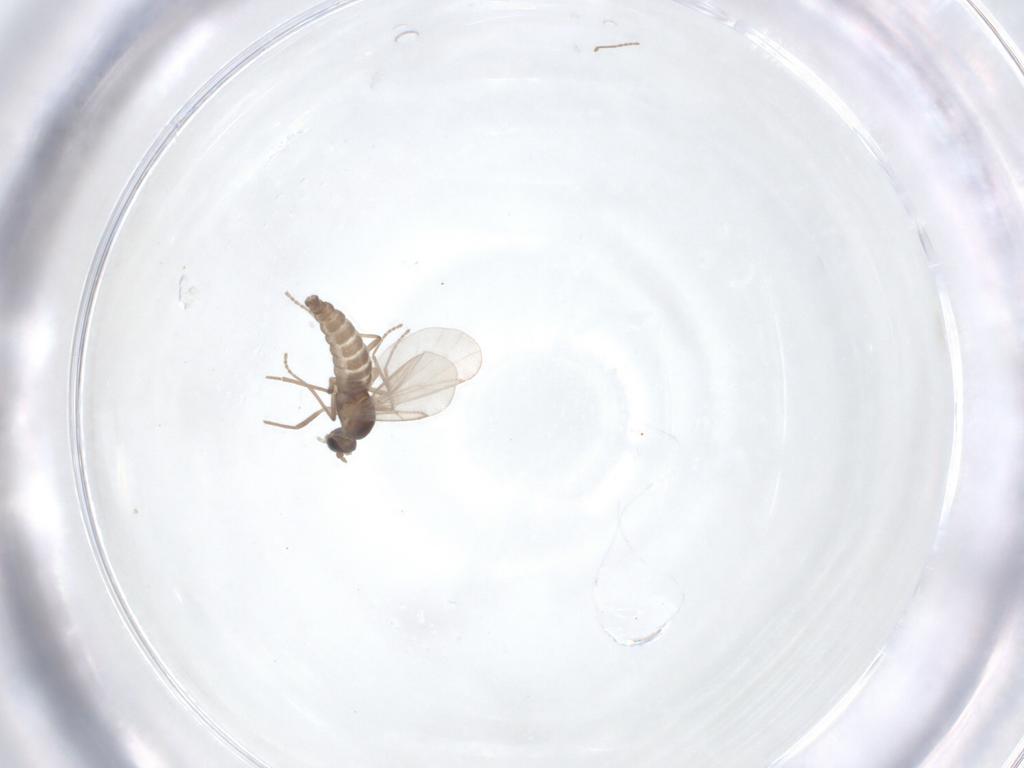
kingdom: Animalia
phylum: Arthropoda
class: Insecta
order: Diptera
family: Cecidomyiidae
